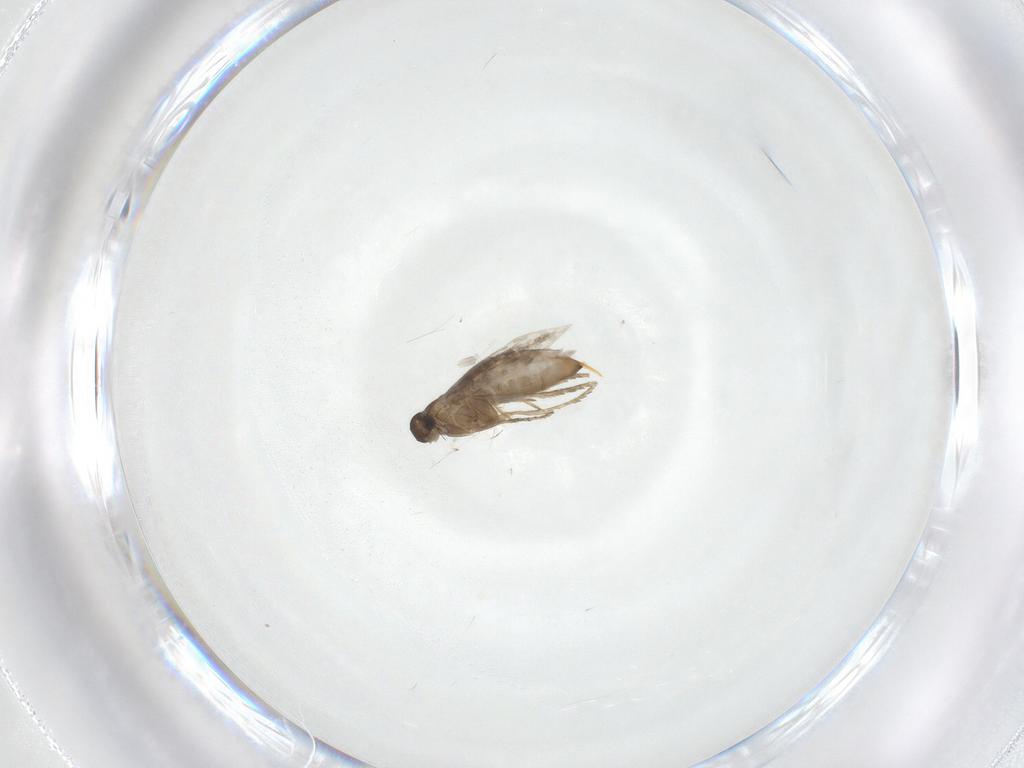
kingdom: Animalia
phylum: Arthropoda
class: Insecta
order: Lepidoptera
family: Heliozelidae
